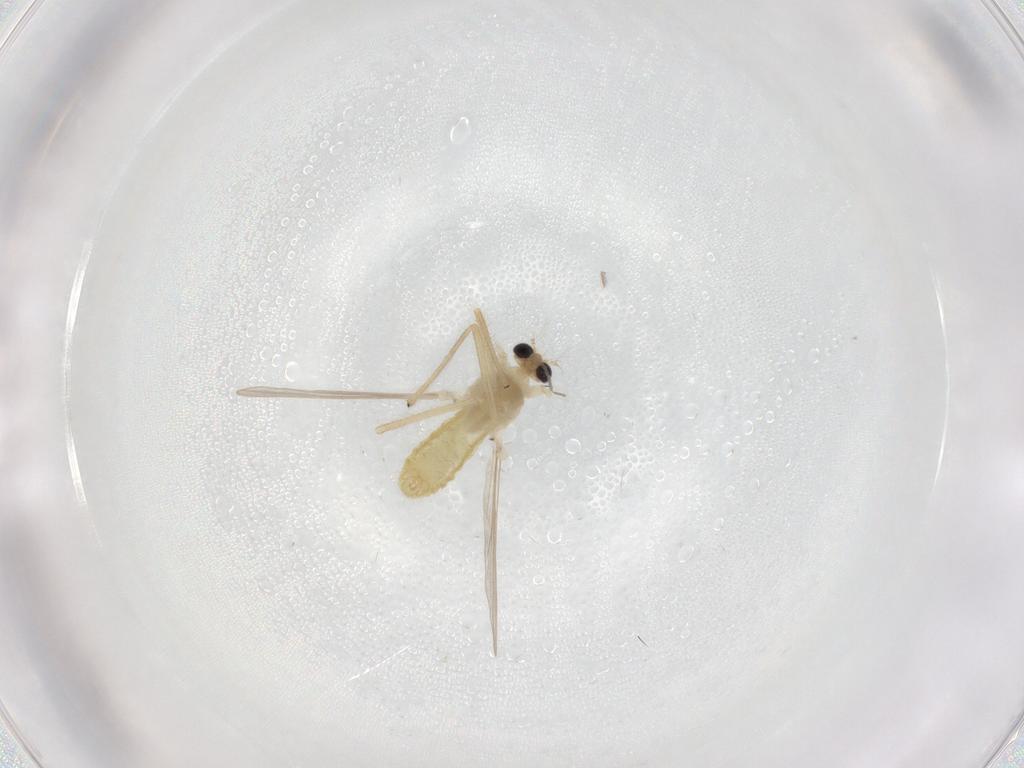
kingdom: Animalia
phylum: Arthropoda
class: Insecta
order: Diptera
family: Chironomidae
